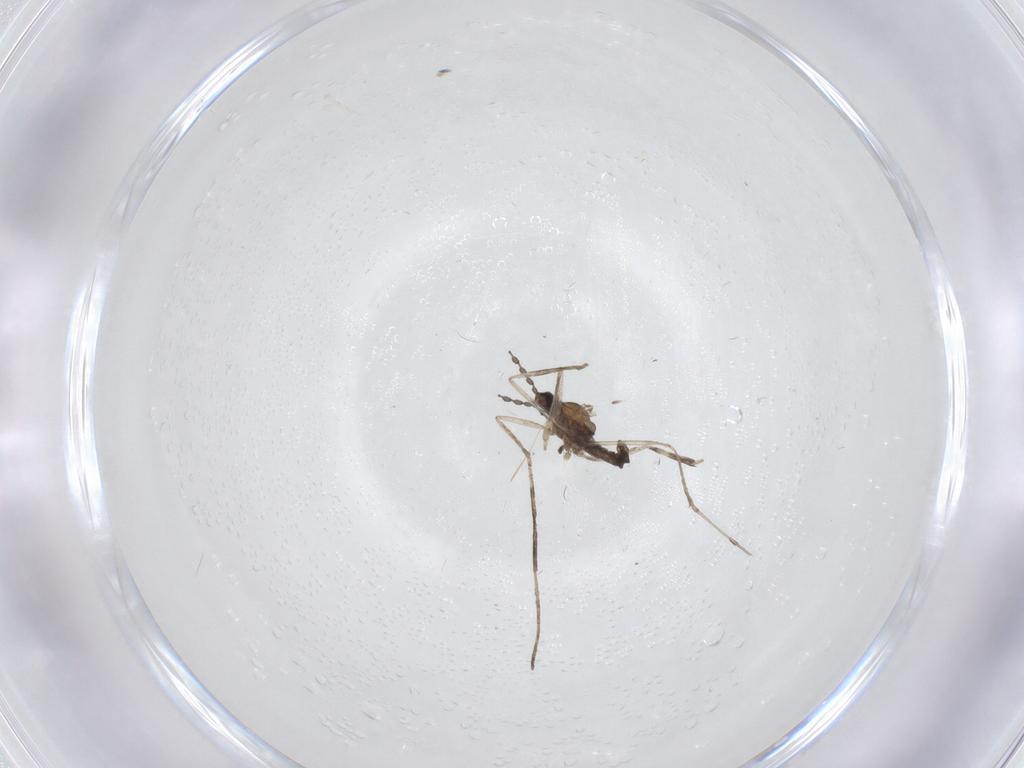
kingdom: Animalia
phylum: Arthropoda
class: Insecta
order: Diptera
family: Cecidomyiidae
